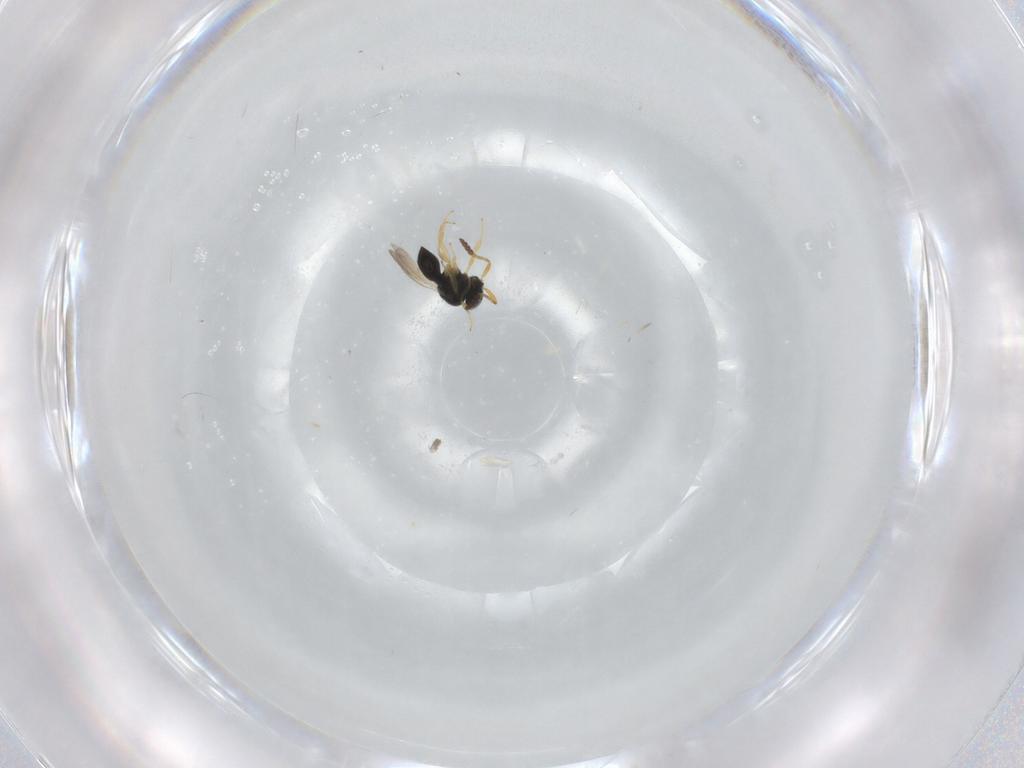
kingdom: Animalia
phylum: Arthropoda
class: Insecta
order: Hymenoptera
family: Scelionidae
